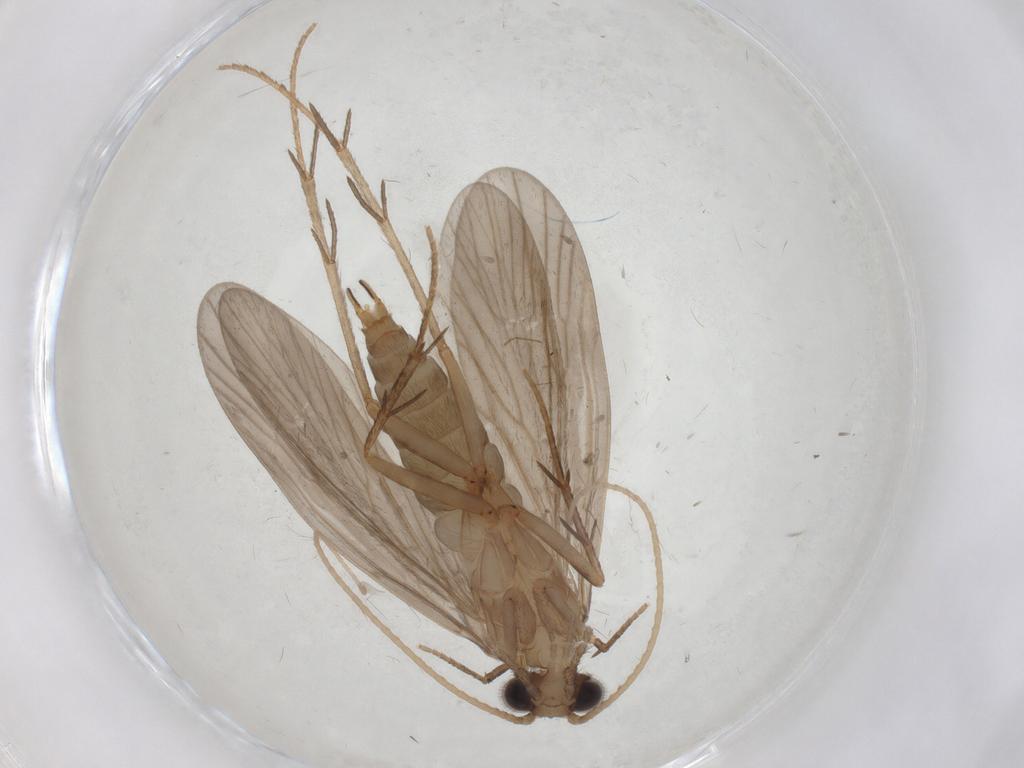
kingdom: Animalia
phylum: Arthropoda
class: Insecta
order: Trichoptera
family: Philopotamidae
